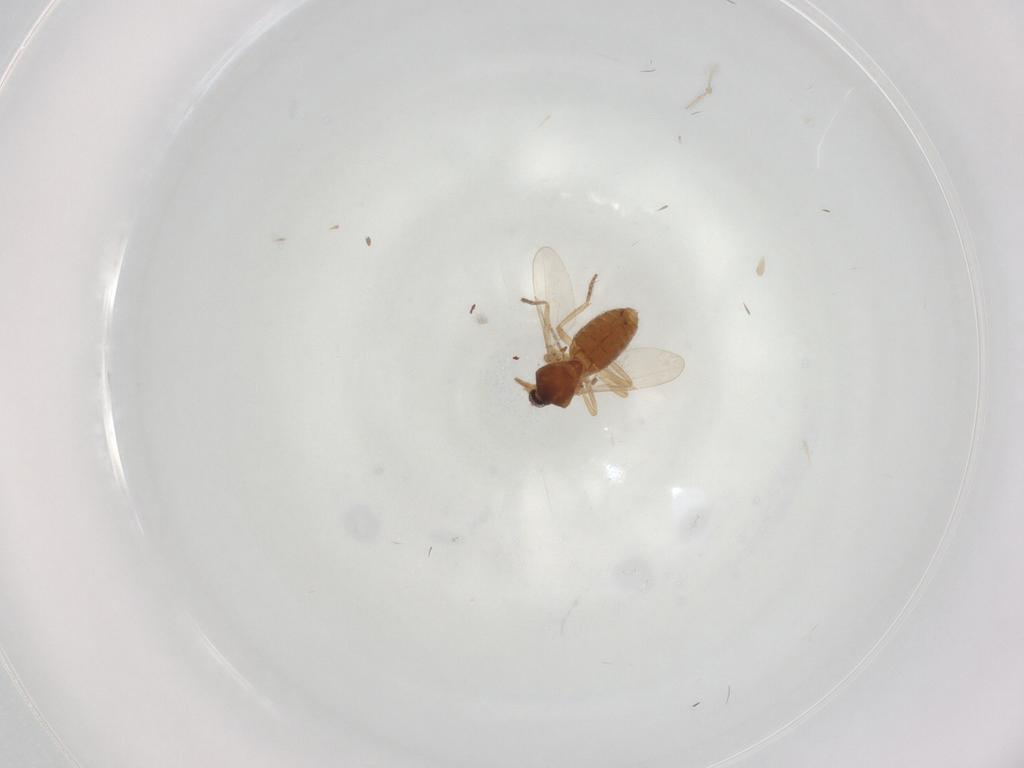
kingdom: Animalia
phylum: Arthropoda
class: Insecta
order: Diptera
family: Ceratopogonidae
